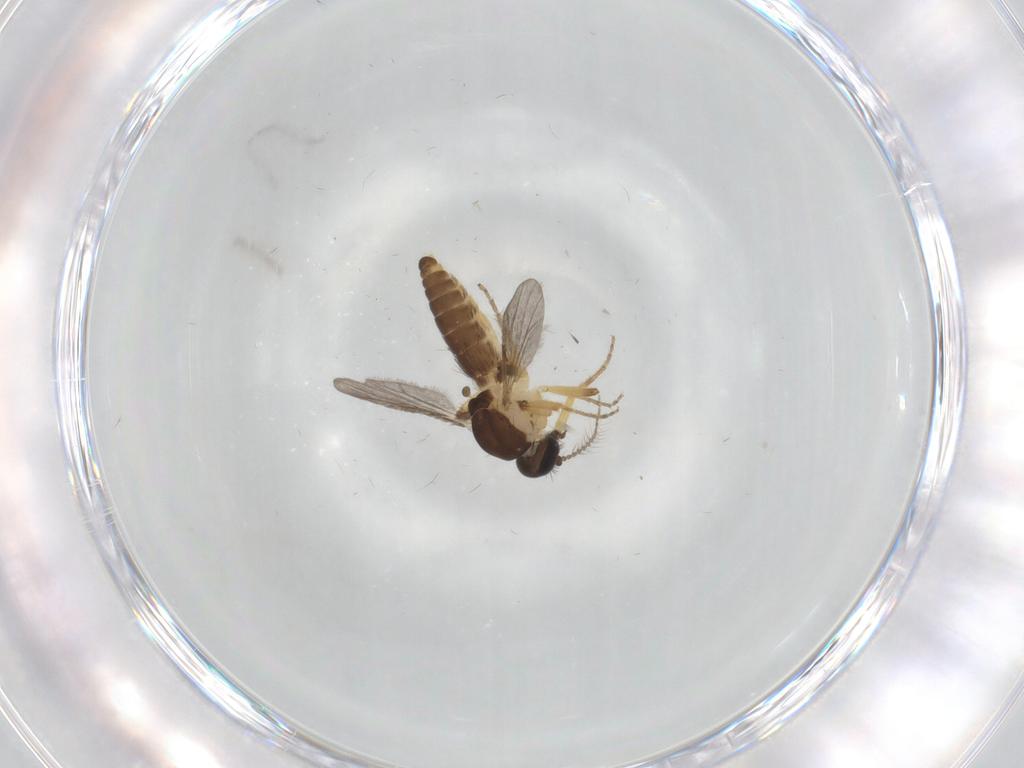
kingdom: Animalia
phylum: Arthropoda
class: Insecta
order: Diptera
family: Ceratopogonidae
